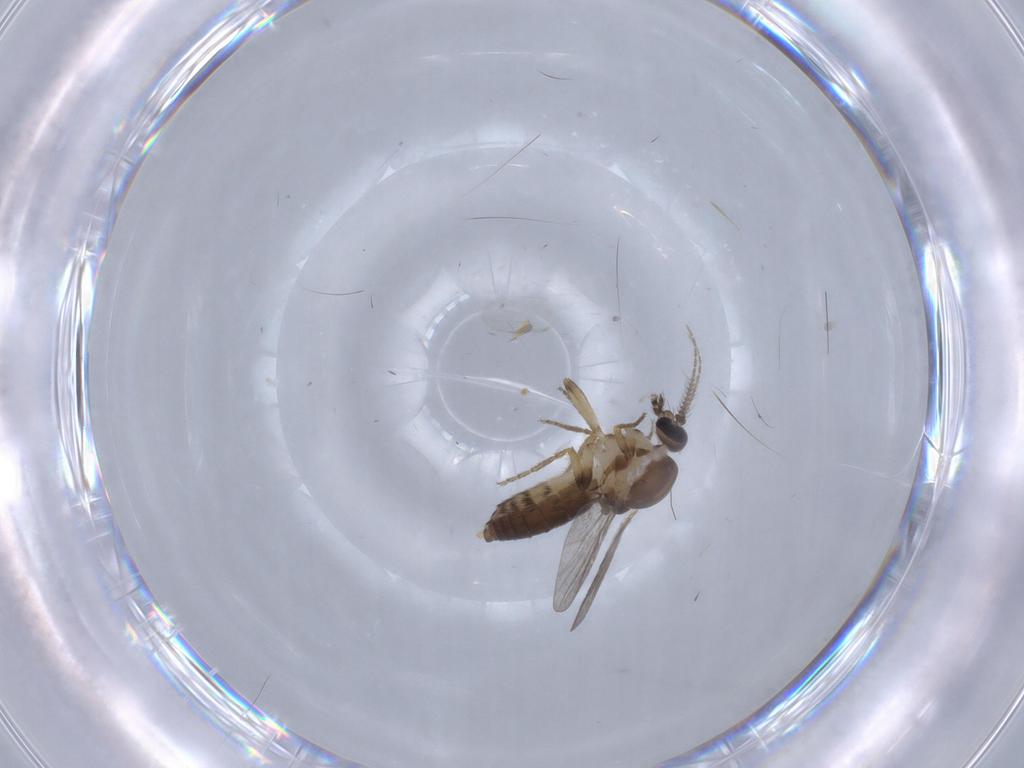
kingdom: Animalia
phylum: Arthropoda
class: Insecta
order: Diptera
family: Ceratopogonidae
